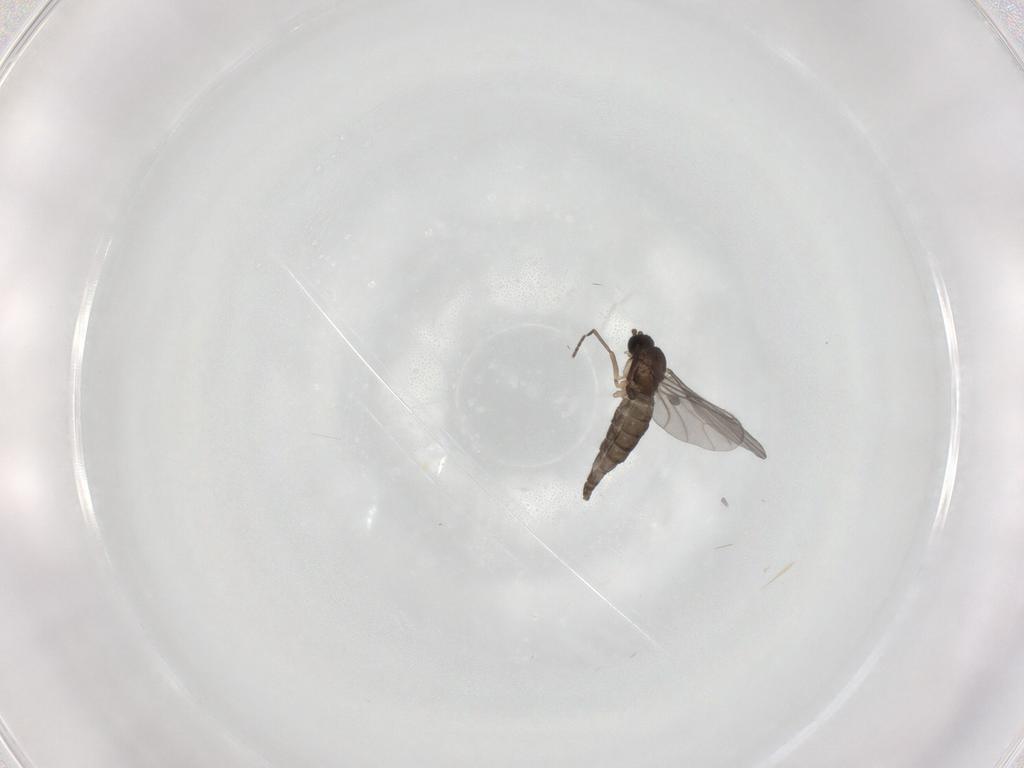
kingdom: Animalia
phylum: Arthropoda
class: Insecta
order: Diptera
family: Sciaridae
